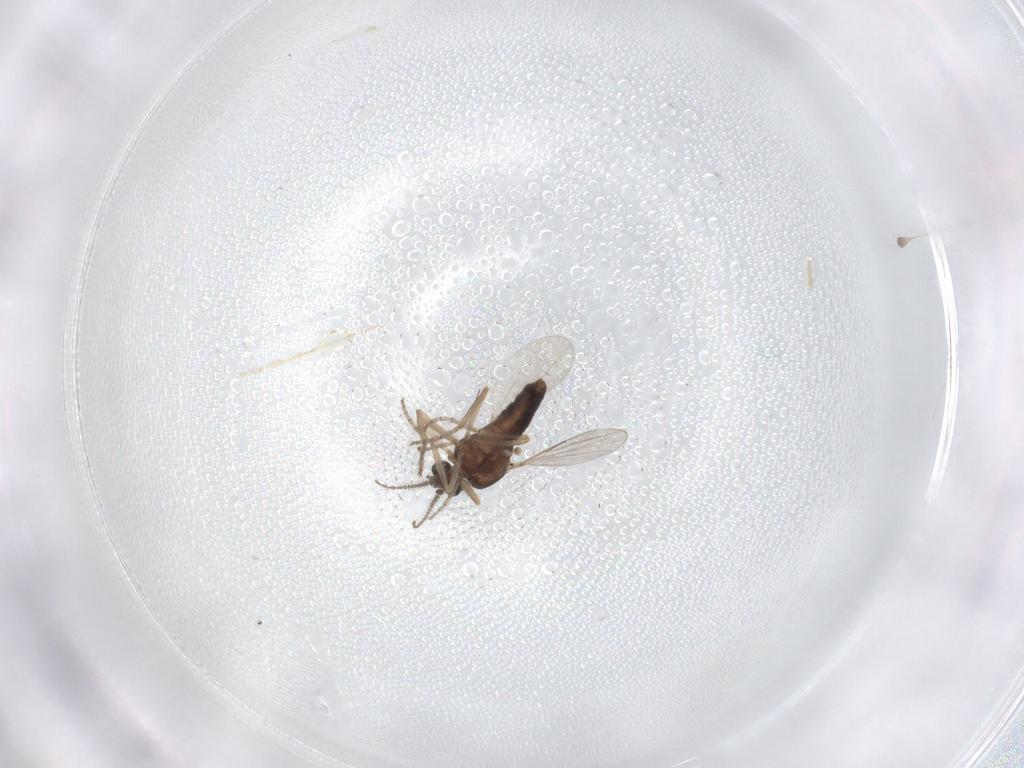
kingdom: Animalia
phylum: Arthropoda
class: Insecta
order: Diptera
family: Ceratopogonidae
